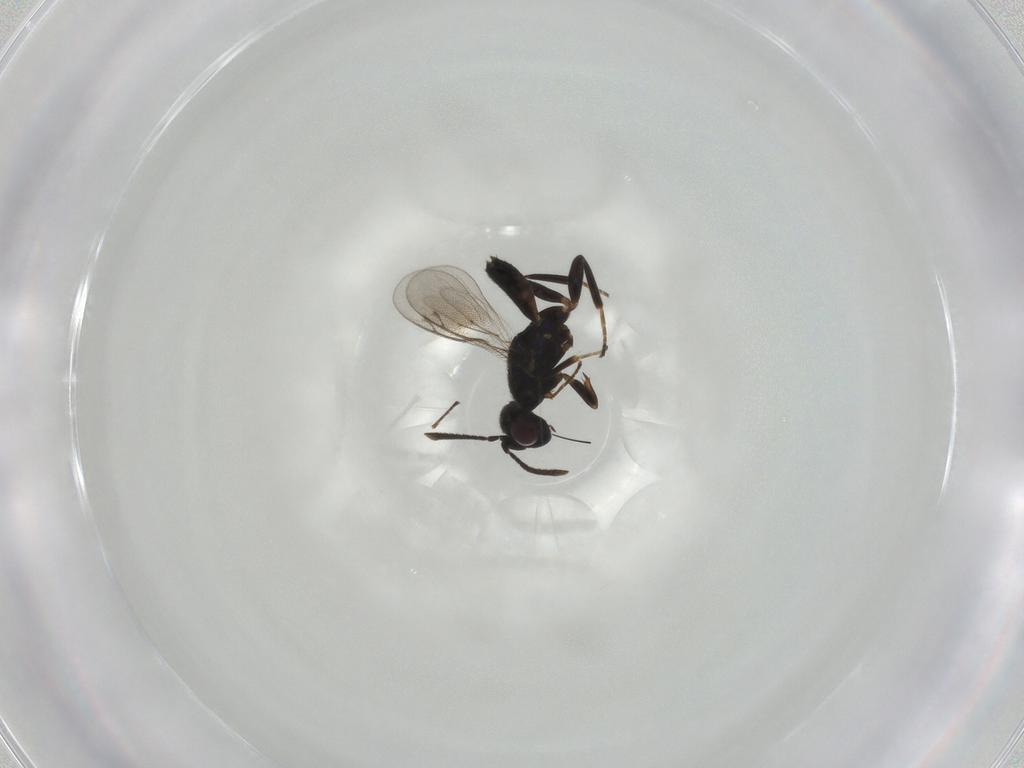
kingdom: Animalia
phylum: Arthropoda
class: Insecta
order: Hymenoptera
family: Eupelmidae
